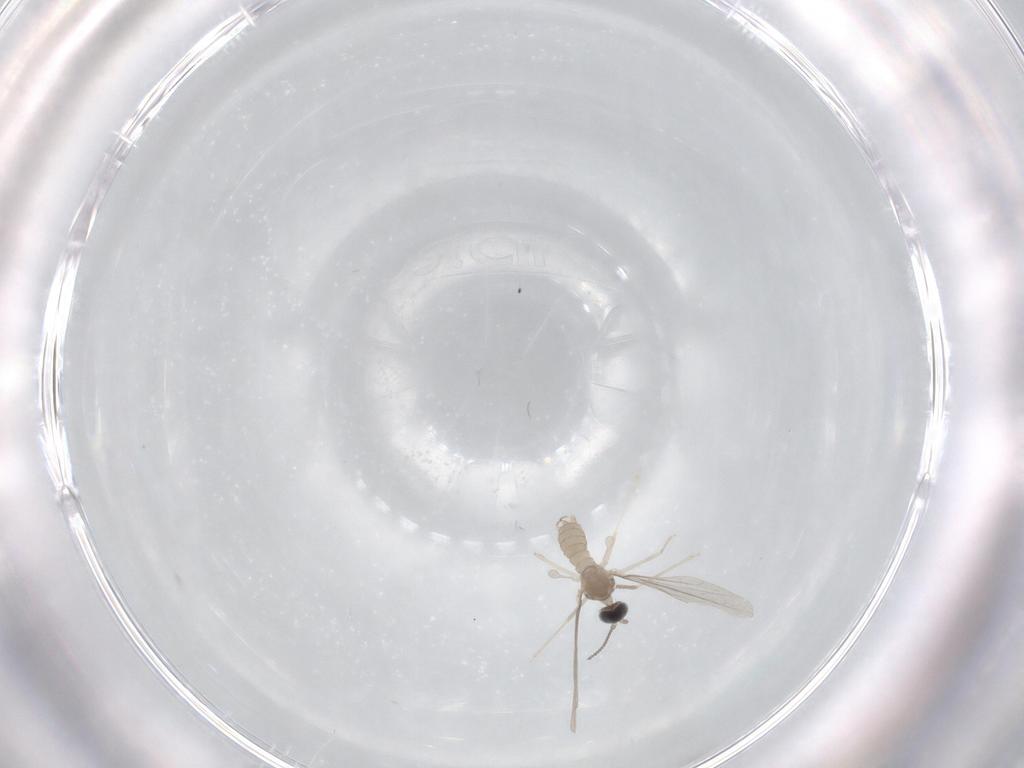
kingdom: Animalia
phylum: Arthropoda
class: Insecta
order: Diptera
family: Cecidomyiidae
